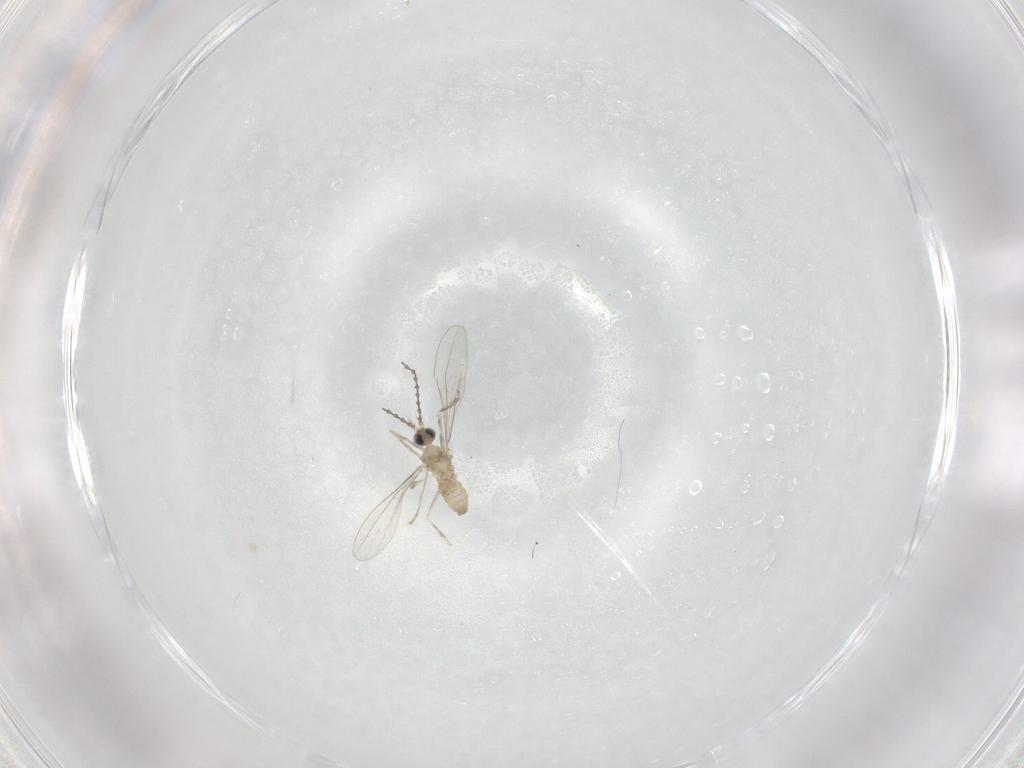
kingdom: Animalia
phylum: Arthropoda
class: Insecta
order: Diptera
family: Cecidomyiidae
